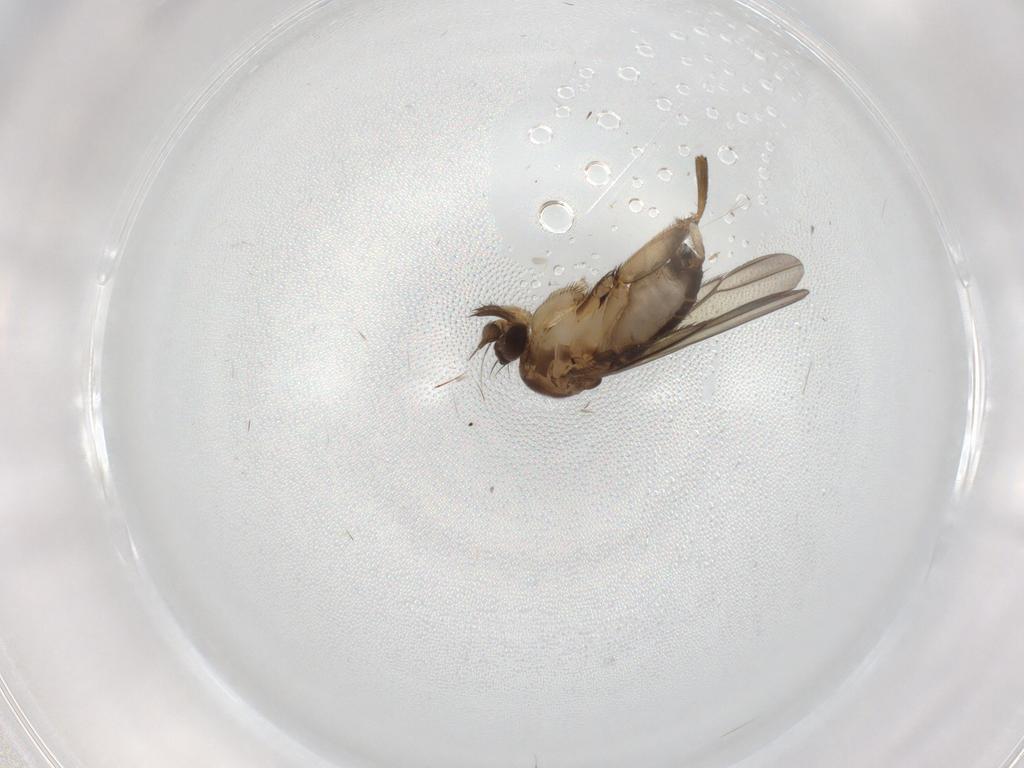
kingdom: Animalia
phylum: Arthropoda
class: Insecta
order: Diptera
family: Phoridae
